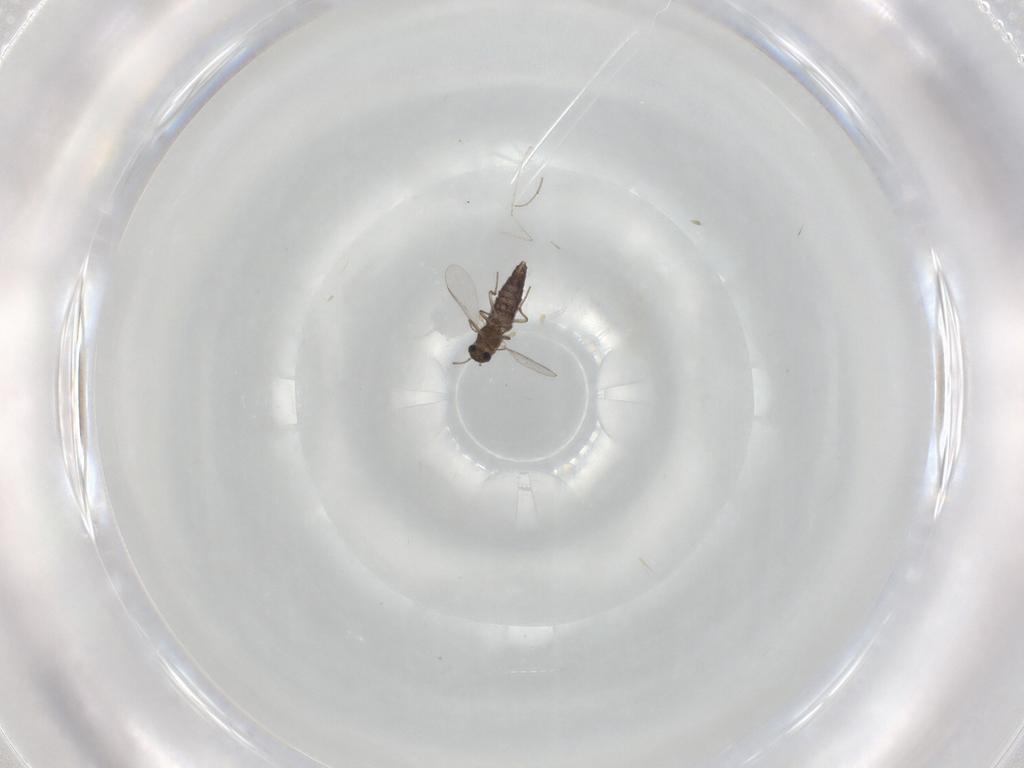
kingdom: Animalia
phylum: Arthropoda
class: Insecta
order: Diptera
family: Chironomidae
